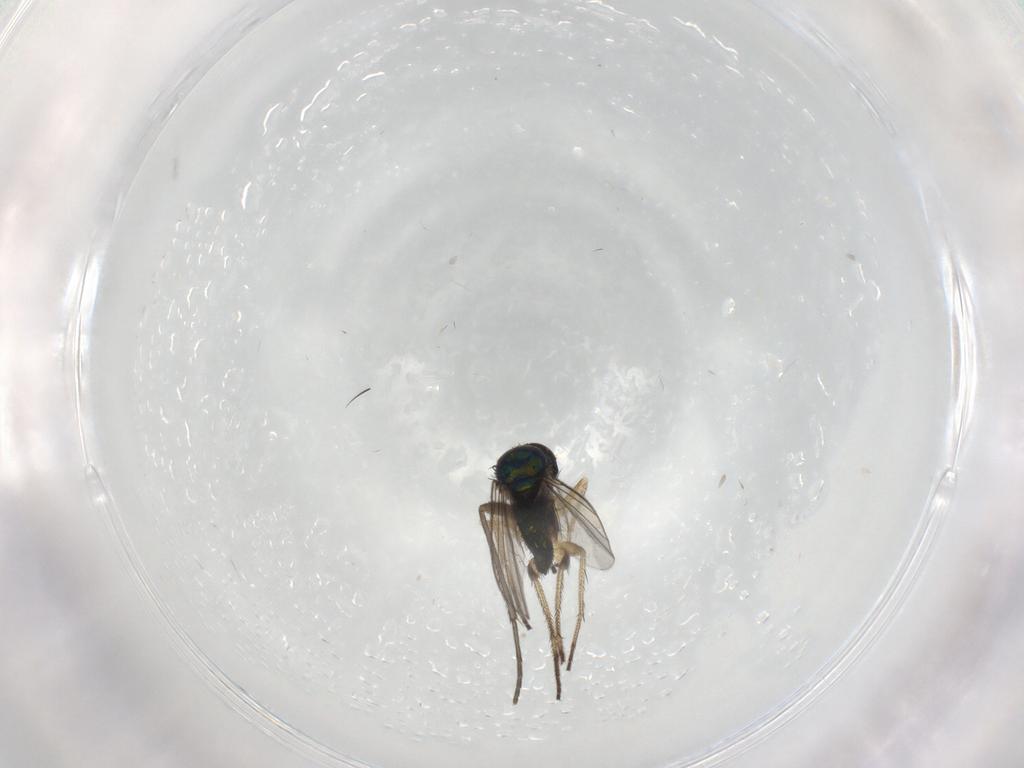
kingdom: Animalia
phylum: Arthropoda
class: Insecta
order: Diptera
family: Sciaridae
